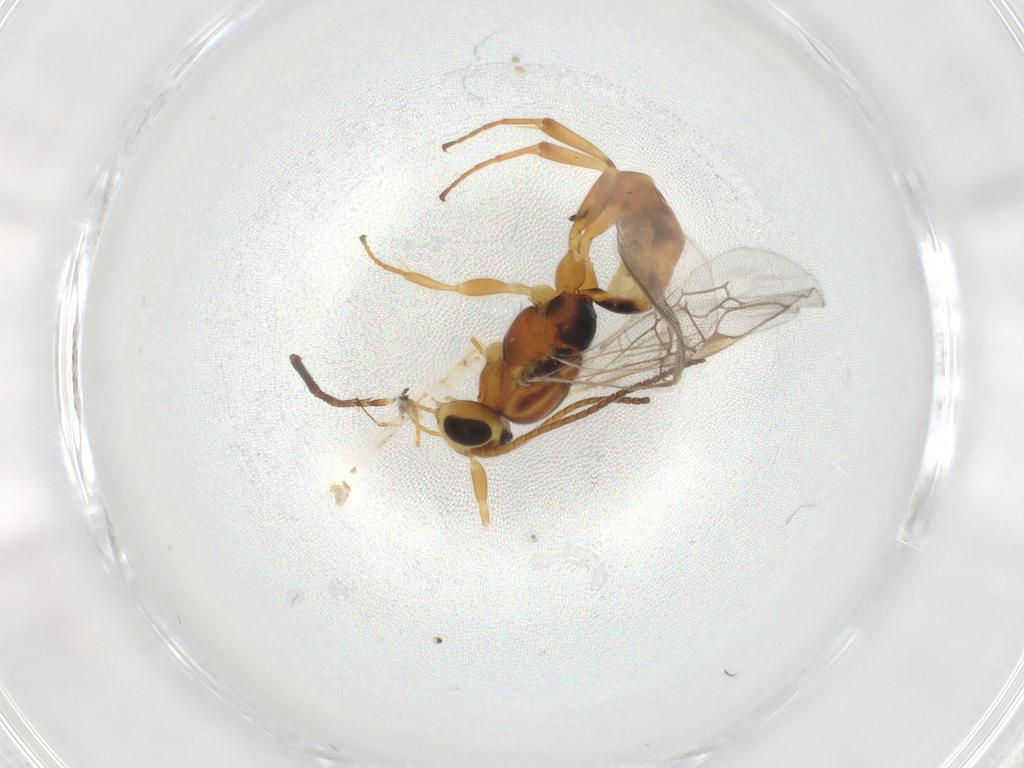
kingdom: Animalia
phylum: Arthropoda
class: Insecta
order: Hymenoptera
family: Ichneumonidae
